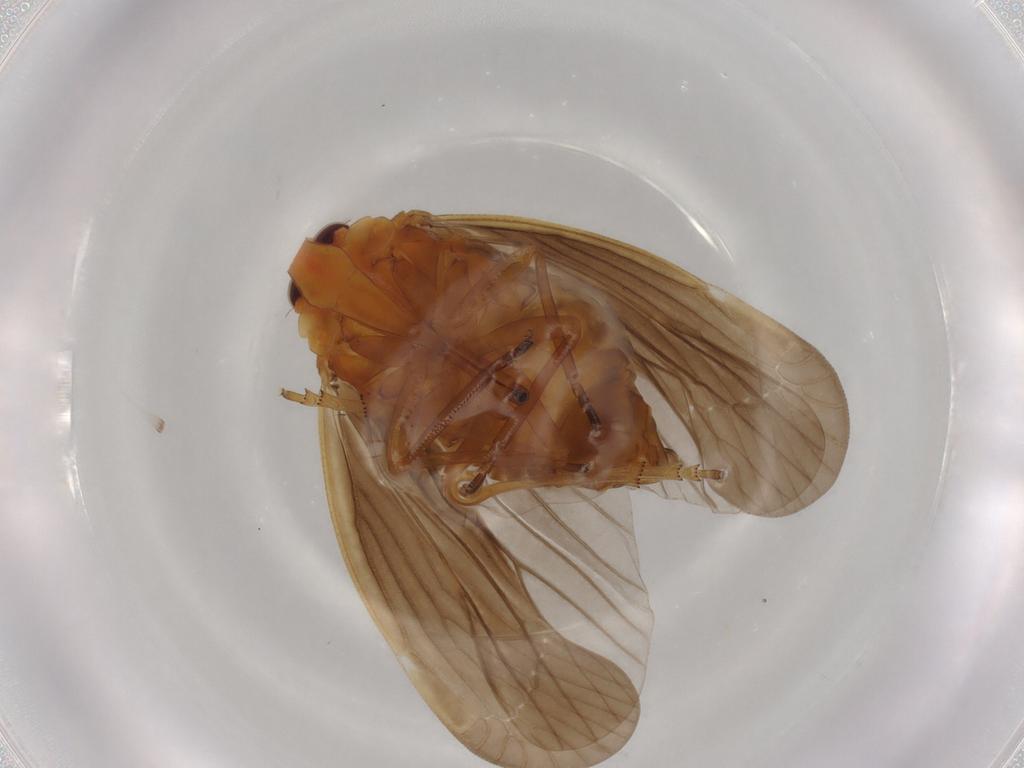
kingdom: Animalia
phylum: Arthropoda
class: Insecta
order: Hemiptera
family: Derbidae
